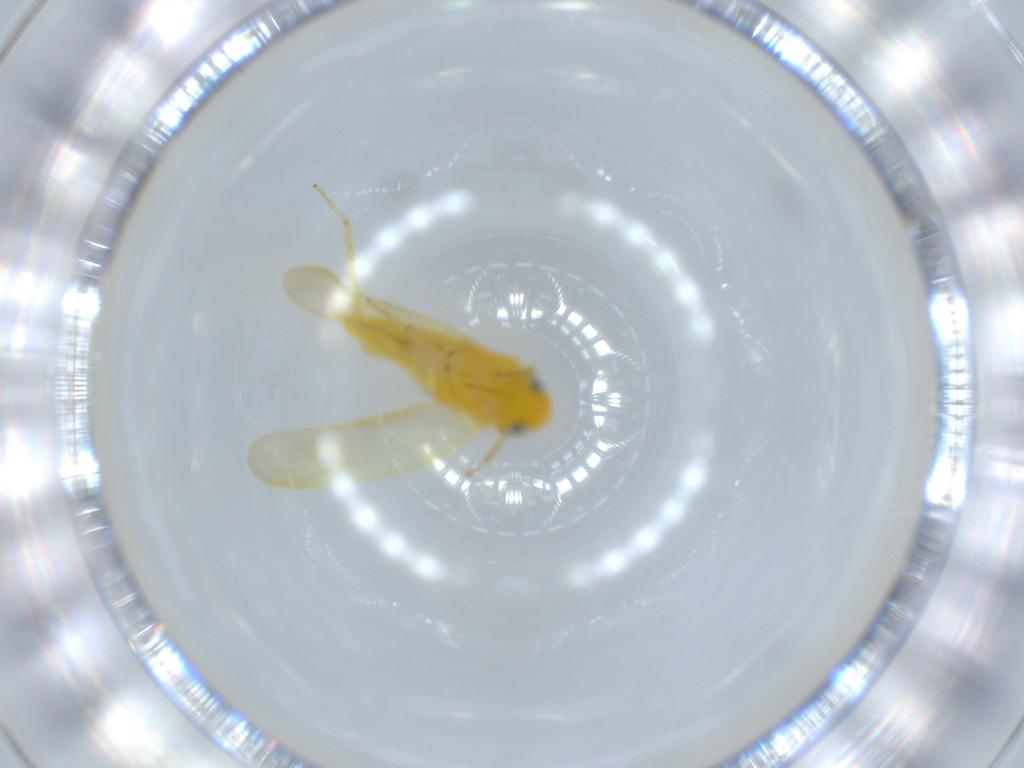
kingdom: Animalia
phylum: Arthropoda
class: Insecta
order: Hemiptera
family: Cicadellidae
